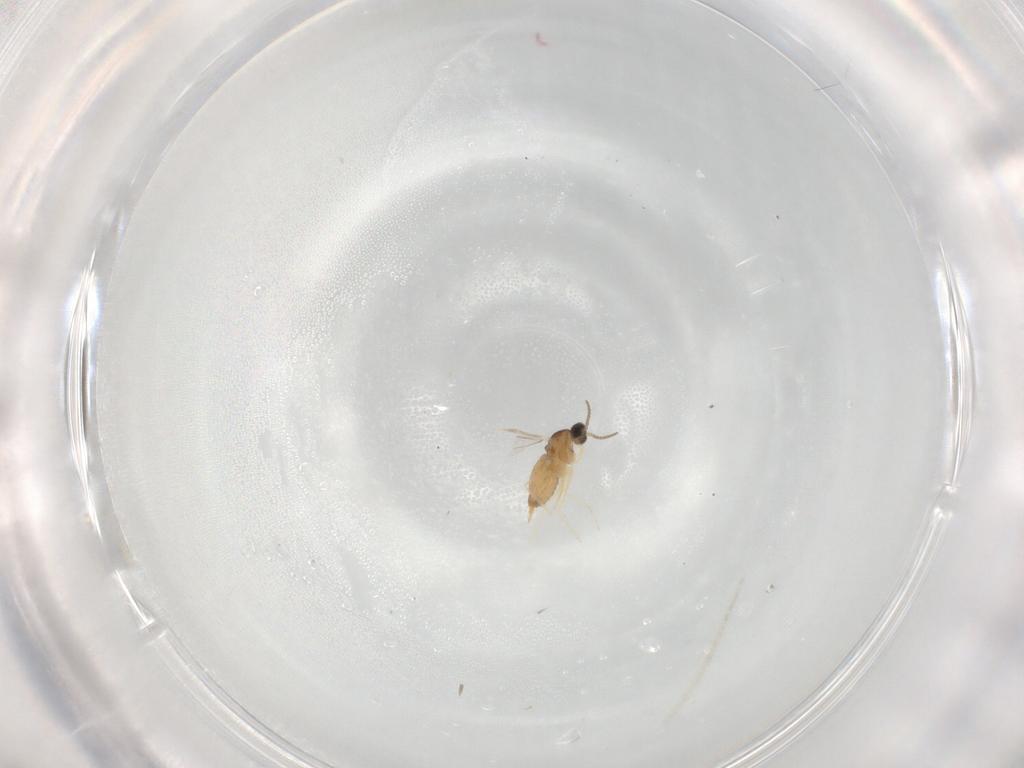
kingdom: Animalia
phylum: Arthropoda
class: Insecta
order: Diptera
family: Cecidomyiidae
